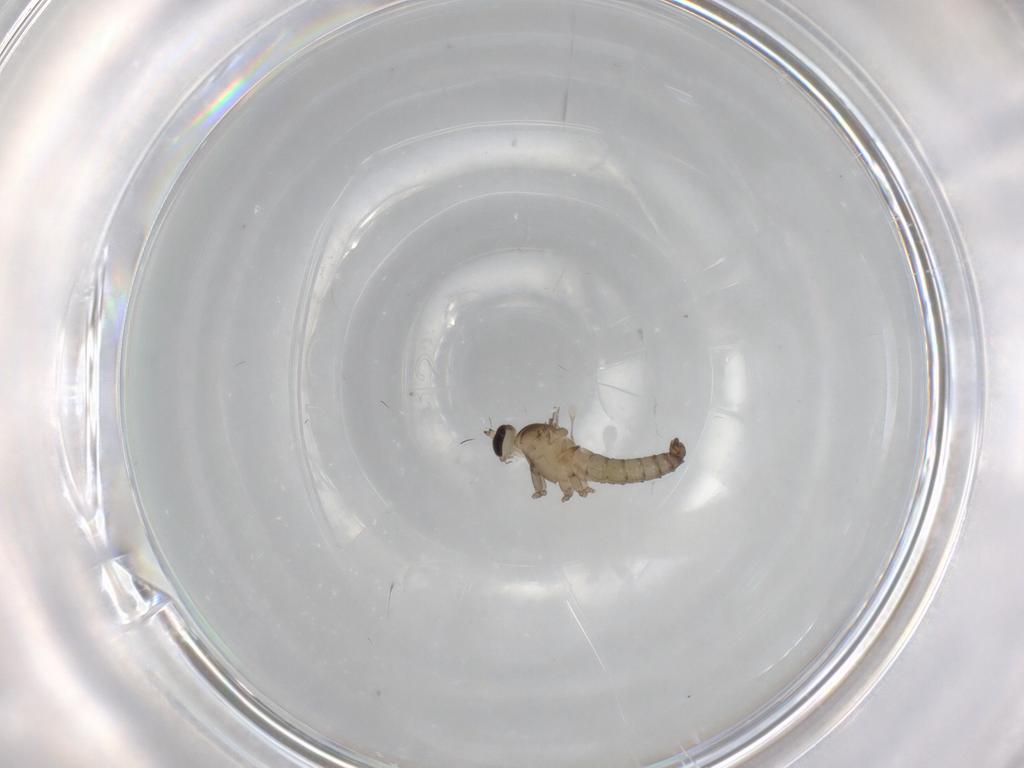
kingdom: Animalia
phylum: Arthropoda
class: Insecta
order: Diptera
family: Cecidomyiidae
